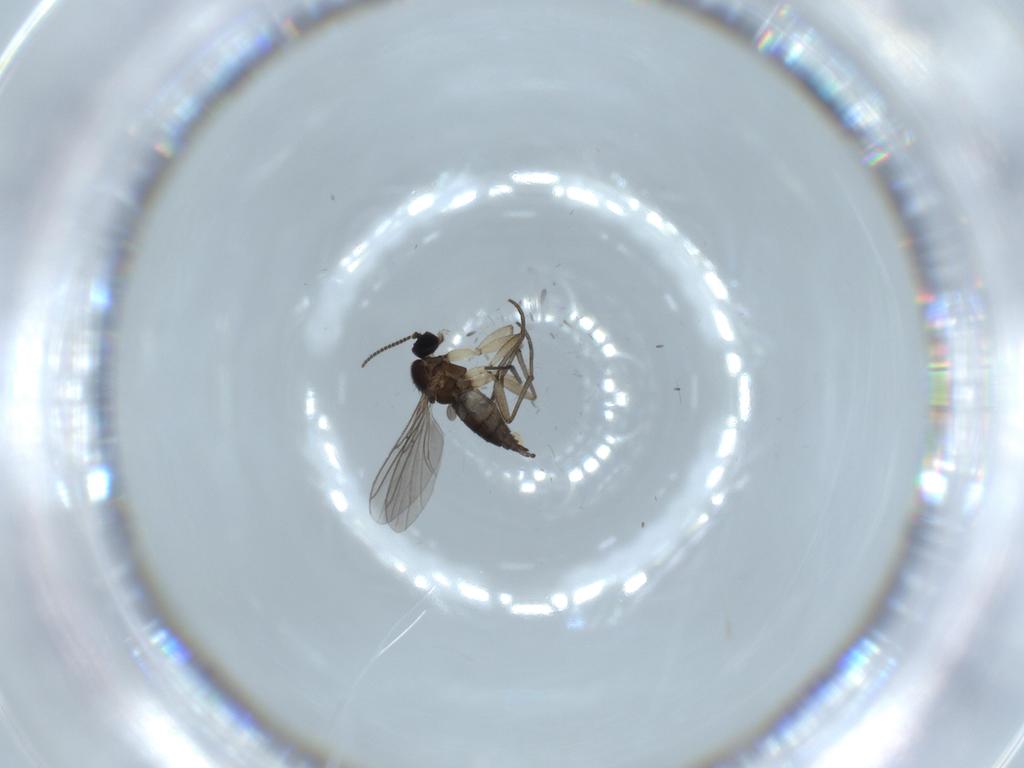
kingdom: Animalia
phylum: Arthropoda
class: Insecta
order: Diptera
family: Sciaridae
